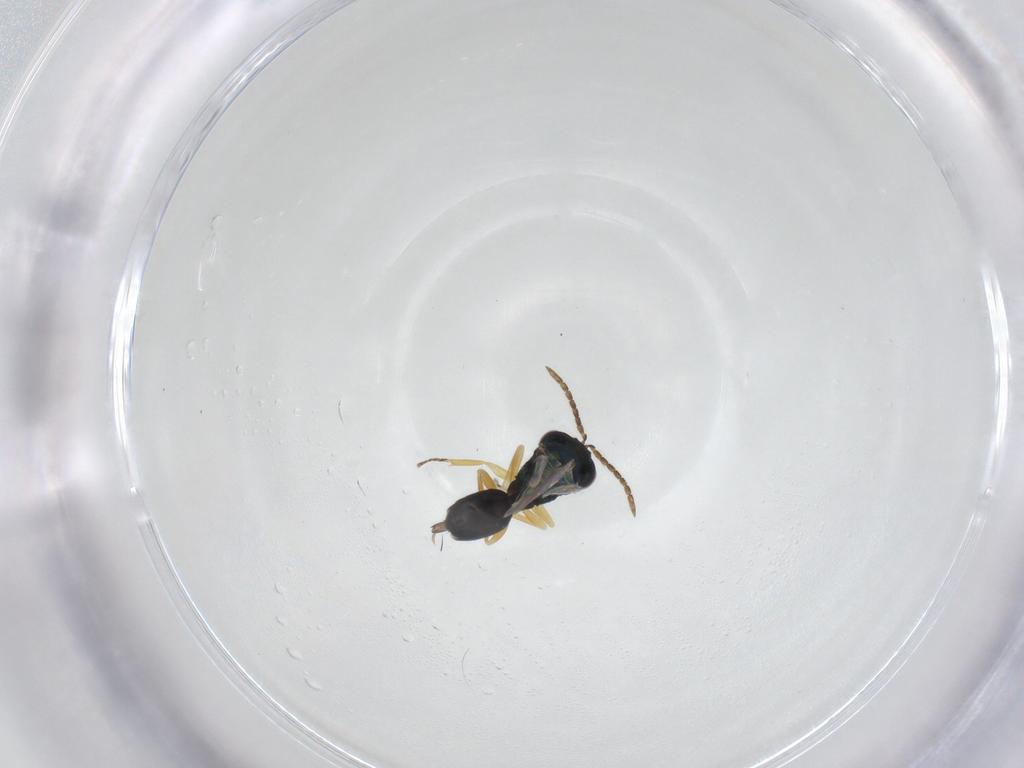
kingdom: Animalia
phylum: Arthropoda
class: Insecta
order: Hymenoptera
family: Pteromalidae
